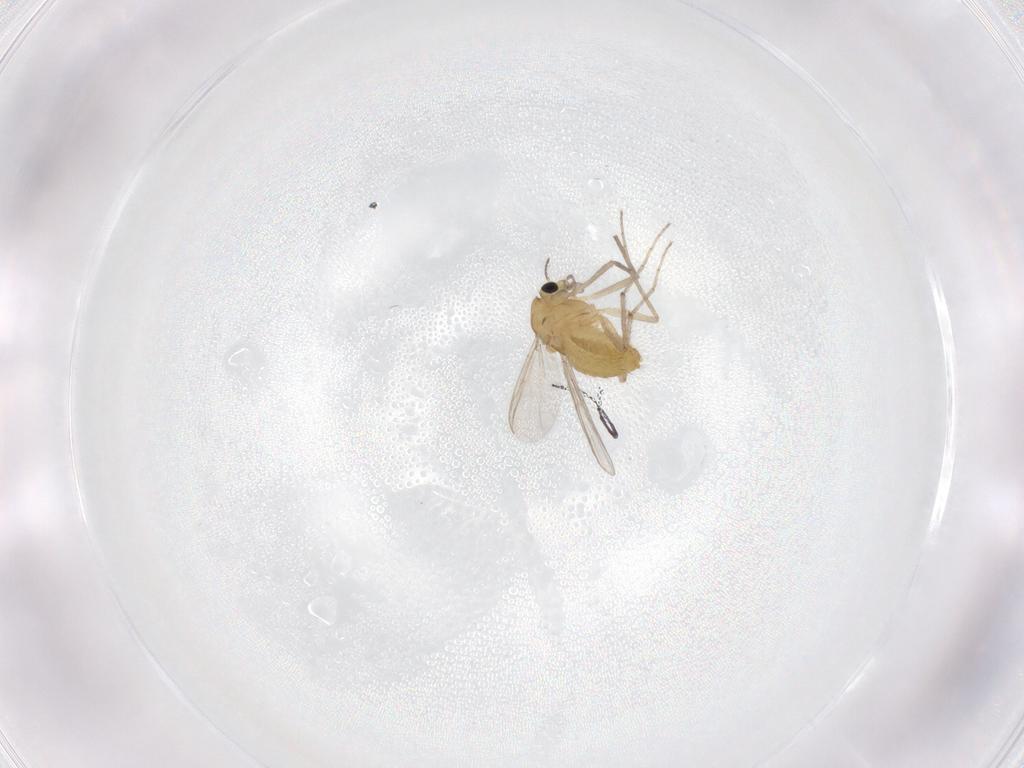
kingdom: Animalia
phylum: Arthropoda
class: Insecta
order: Diptera
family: Chironomidae
